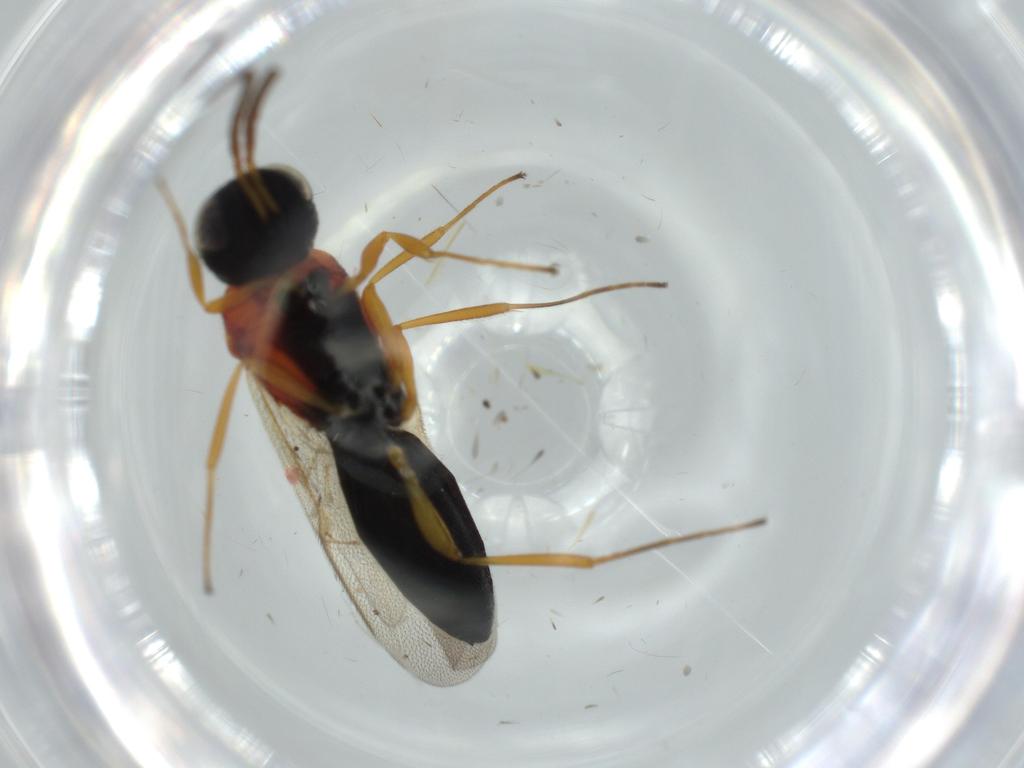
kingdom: Animalia
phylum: Arthropoda
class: Insecta
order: Hymenoptera
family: Scelionidae
